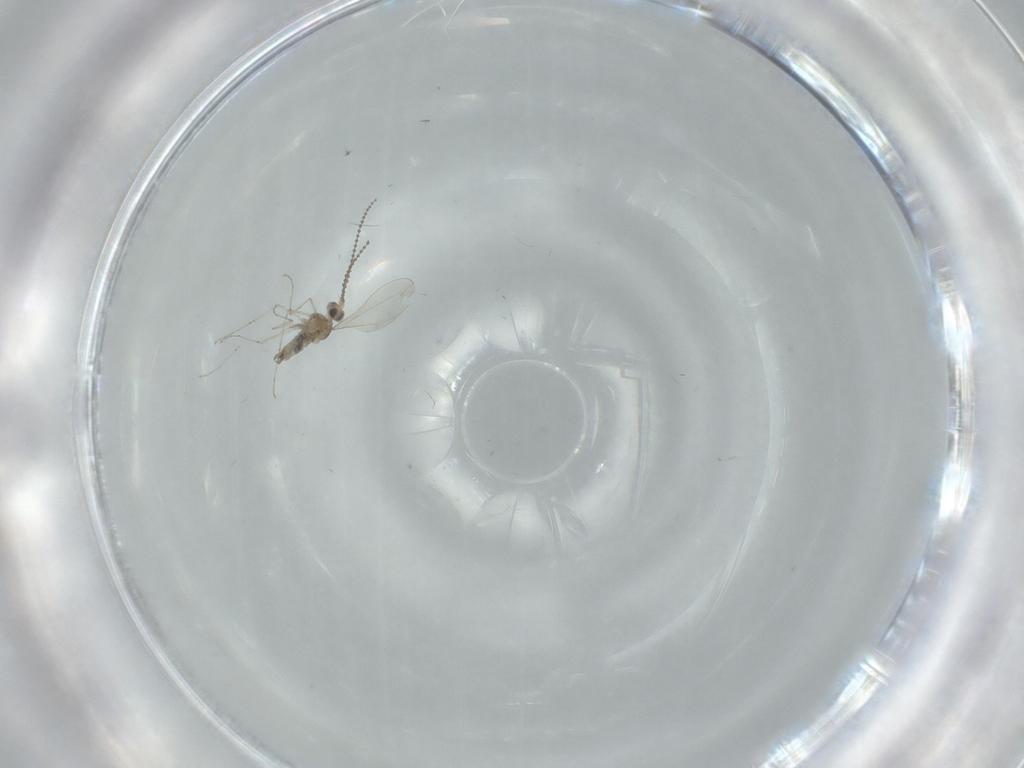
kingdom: Animalia
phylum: Arthropoda
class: Insecta
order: Diptera
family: Cecidomyiidae
